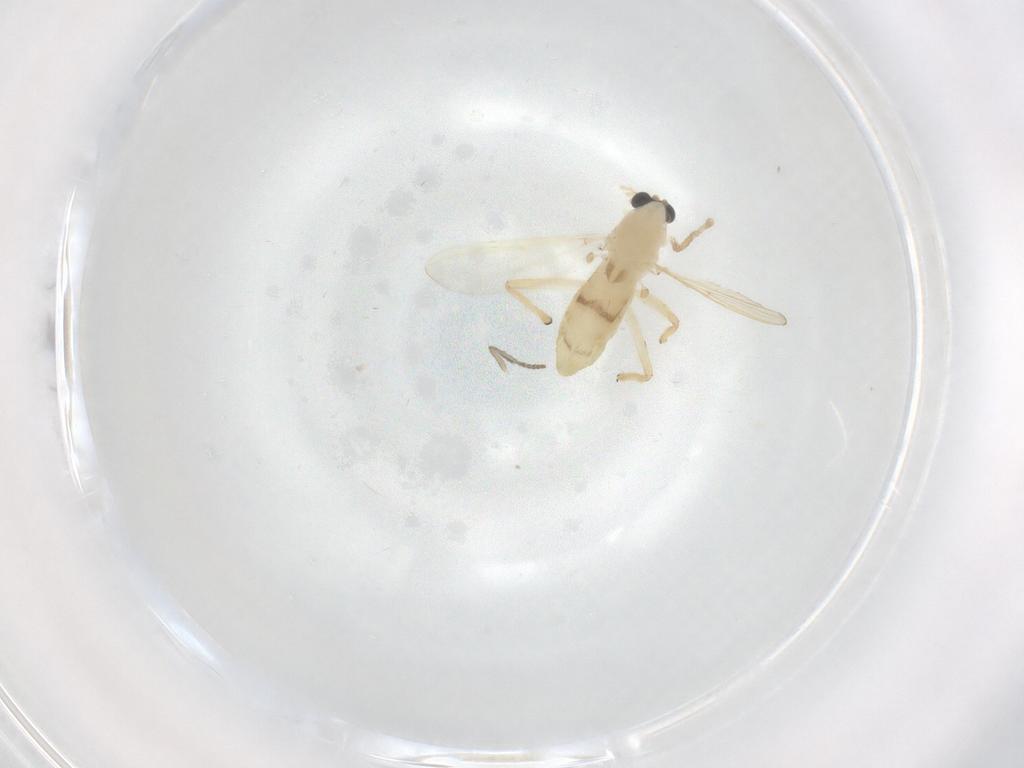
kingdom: Animalia
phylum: Arthropoda
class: Insecta
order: Diptera
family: Chironomidae
